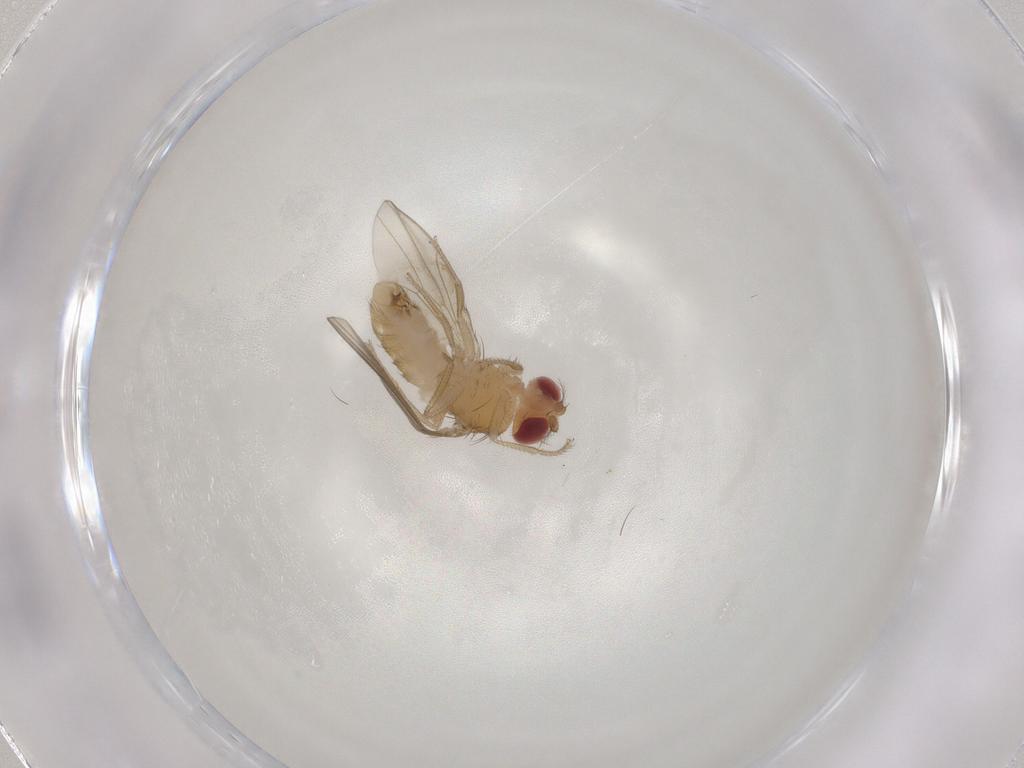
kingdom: Animalia
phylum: Arthropoda
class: Insecta
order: Diptera
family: Drosophilidae
